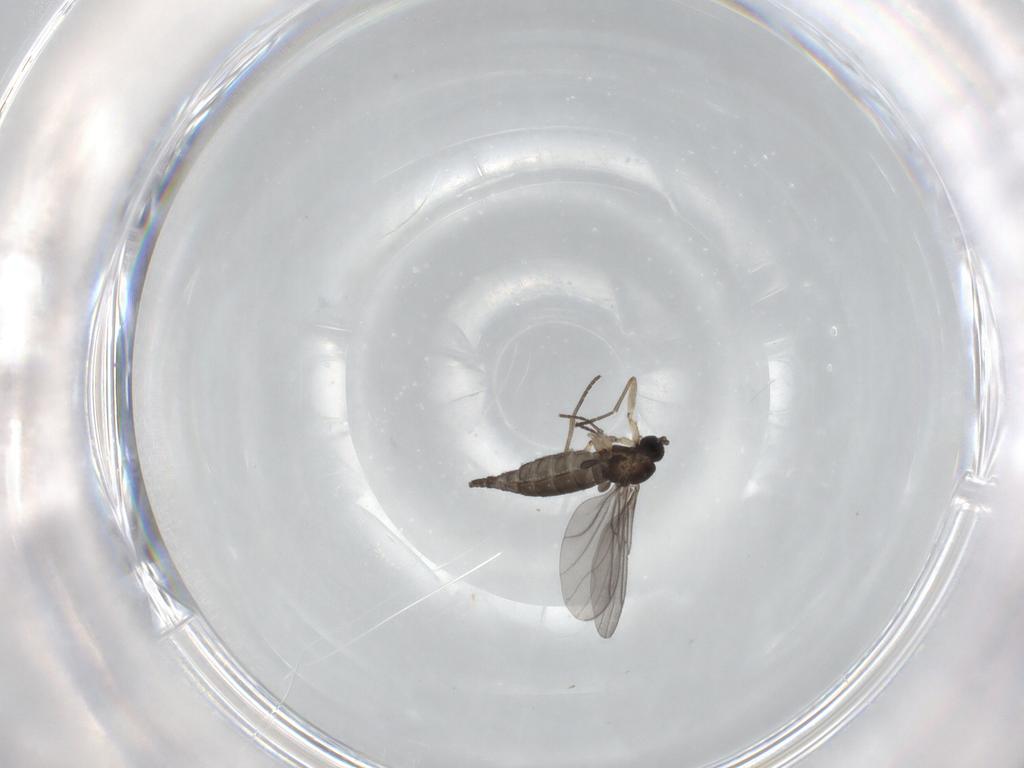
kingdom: Animalia
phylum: Arthropoda
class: Insecta
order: Diptera
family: Sciaridae
